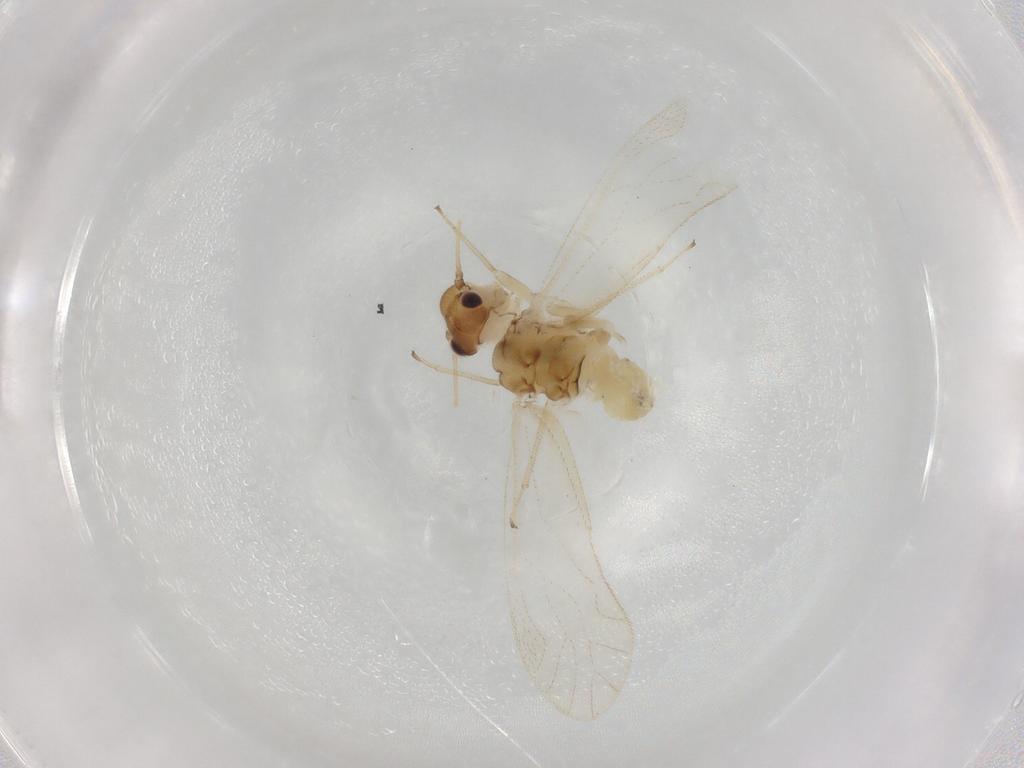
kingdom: Animalia
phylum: Arthropoda
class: Insecta
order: Psocodea
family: Caeciliusidae
